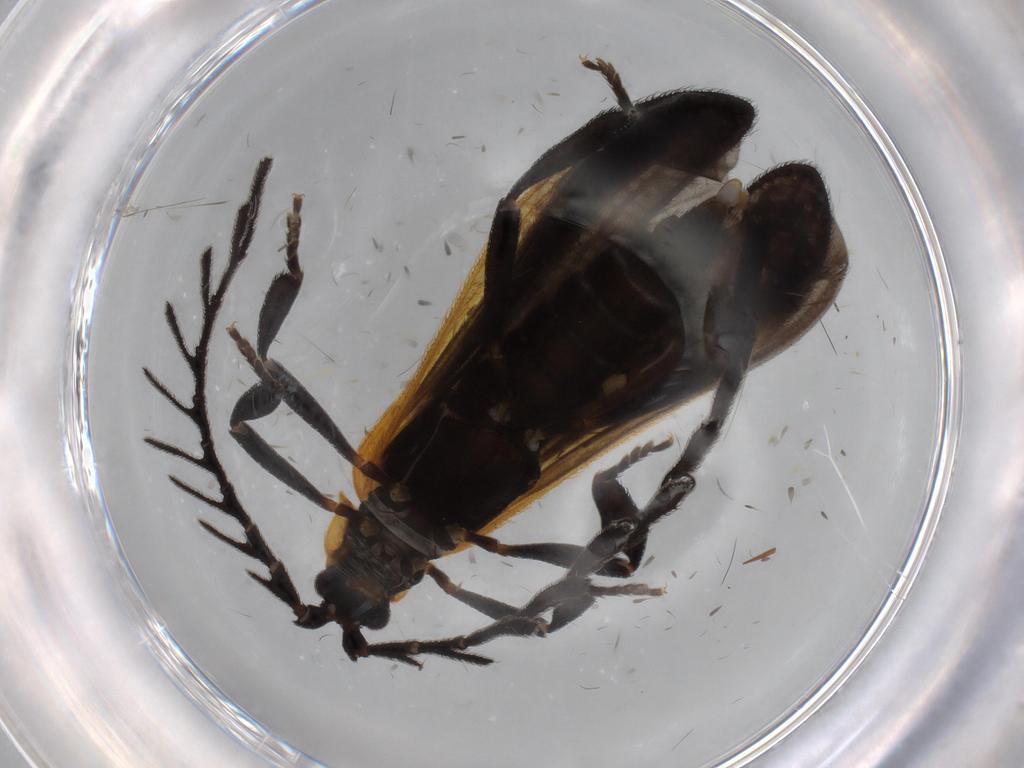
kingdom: Animalia
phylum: Arthropoda
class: Insecta
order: Coleoptera
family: Lycidae
